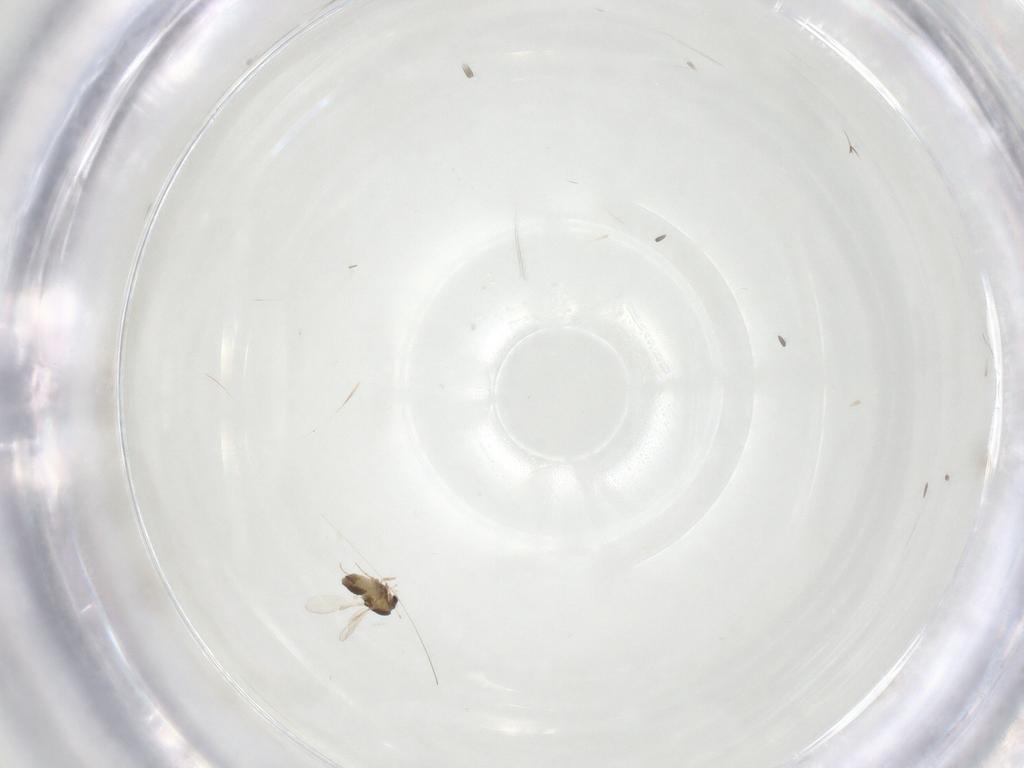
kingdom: Animalia
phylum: Arthropoda
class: Insecta
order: Diptera
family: Chironomidae
